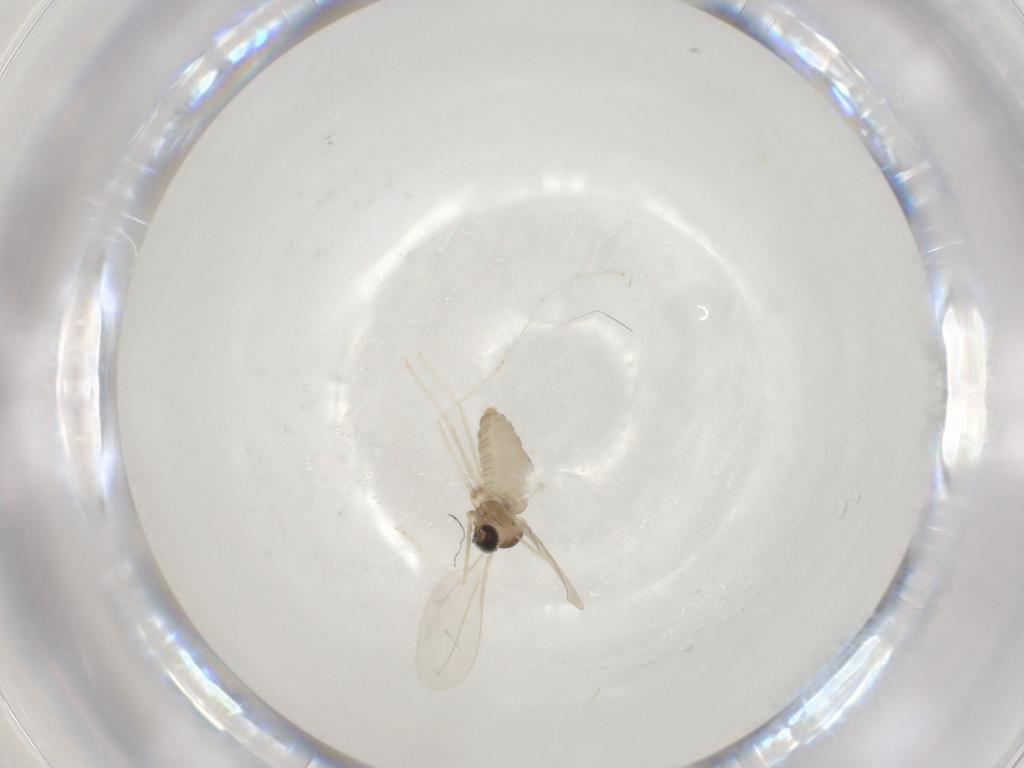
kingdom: Animalia
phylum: Arthropoda
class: Insecta
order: Diptera
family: Cecidomyiidae
